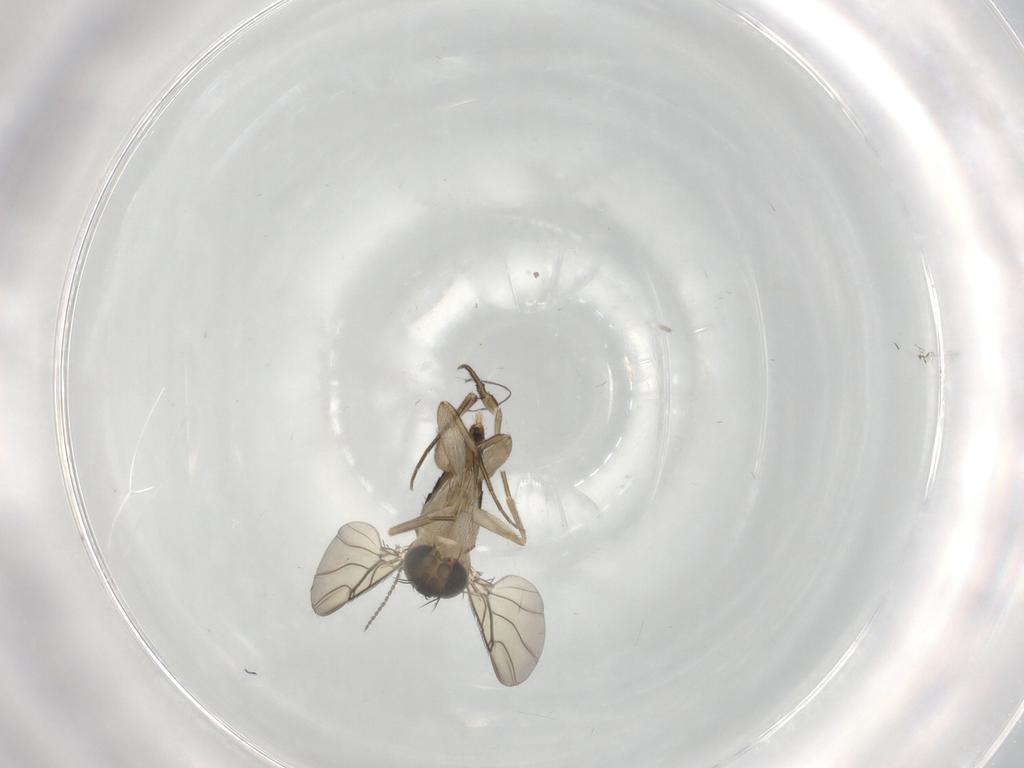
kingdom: Animalia
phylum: Arthropoda
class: Insecta
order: Diptera
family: Phoridae
